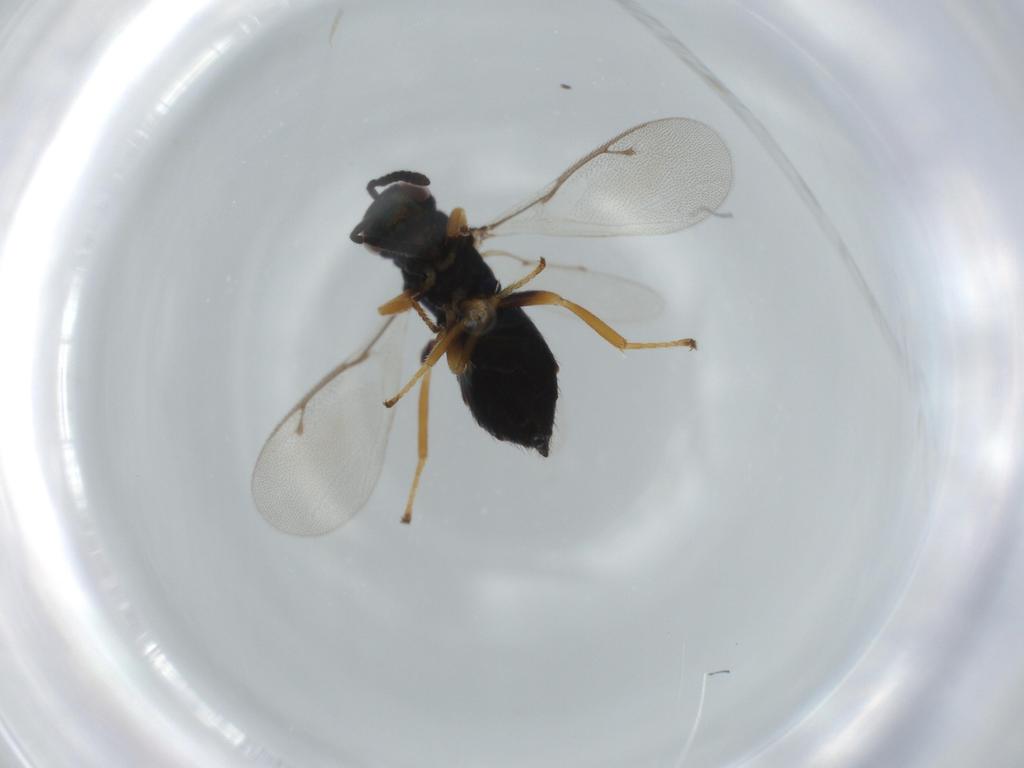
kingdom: Animalia
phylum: Arthropoda
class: Insecta
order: Hymenoptera
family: Pteromalidae
